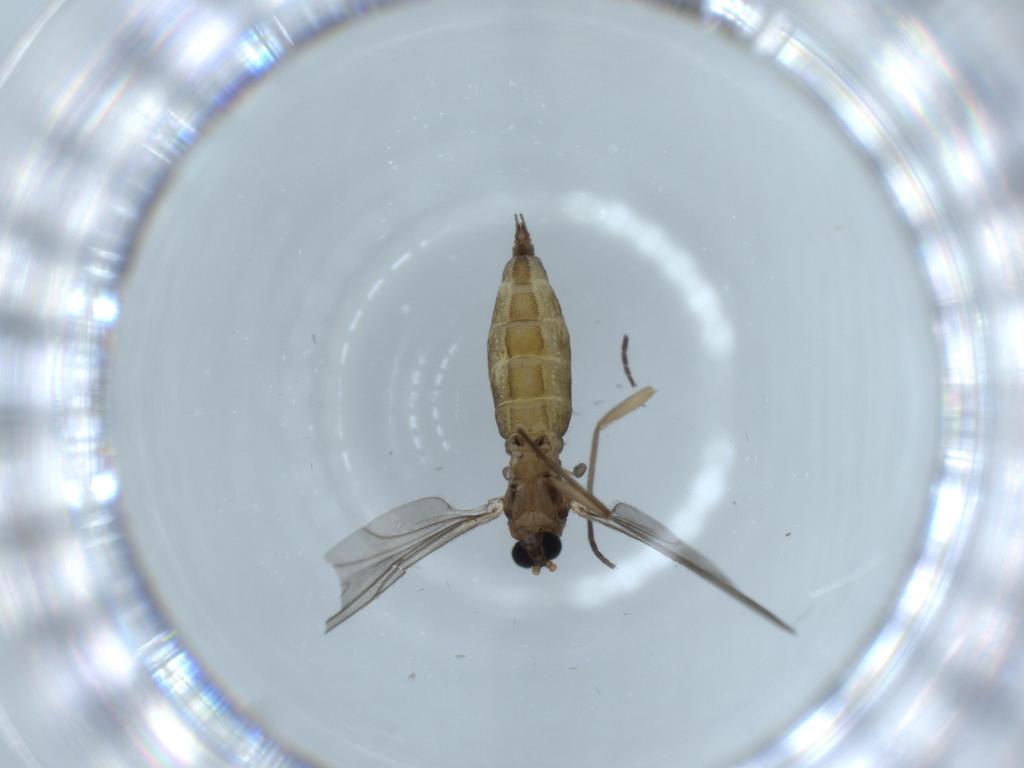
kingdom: Animalia
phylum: Arthropoda
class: Insecta
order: Diptera
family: Sciaridae
